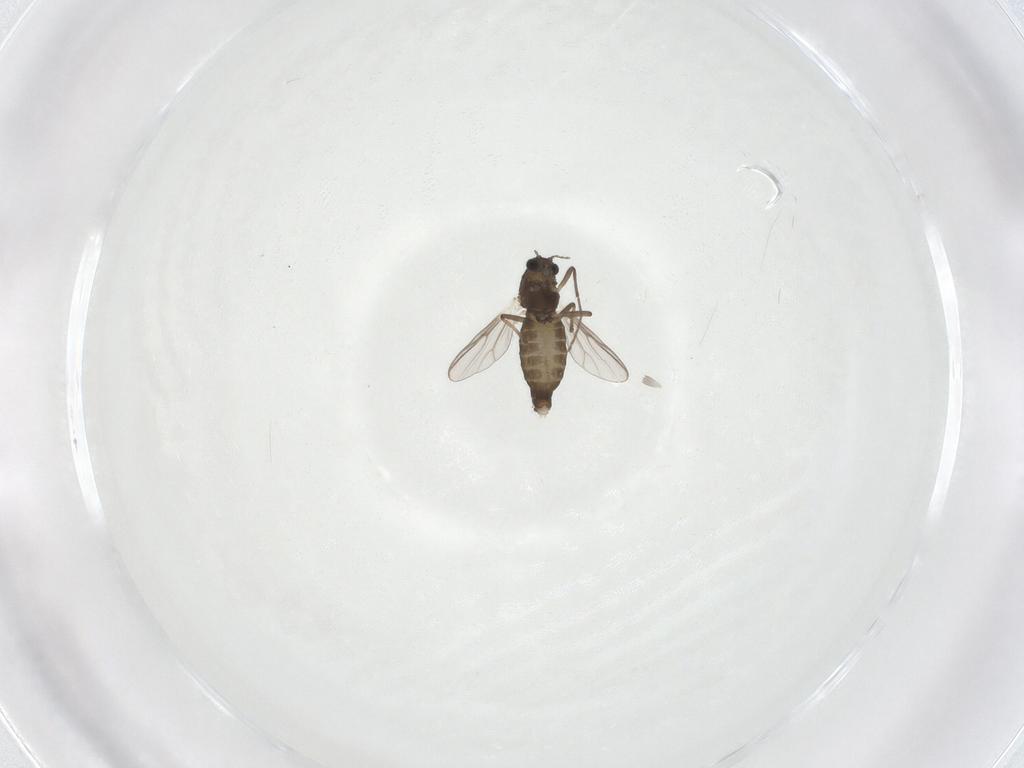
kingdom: Animalia
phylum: Arthropoda
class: Insecta
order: Diptera
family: Chironomidae
